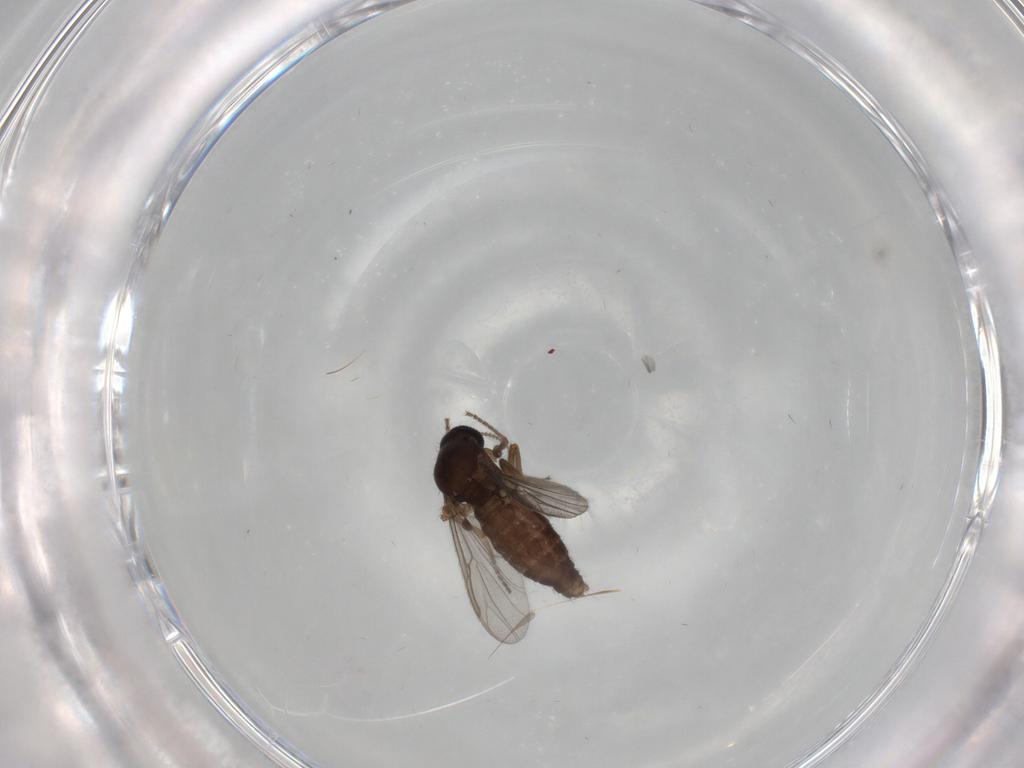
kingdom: Animalia
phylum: Arthropoda
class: Insecta
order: Diptera
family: Ceratopogonidae
